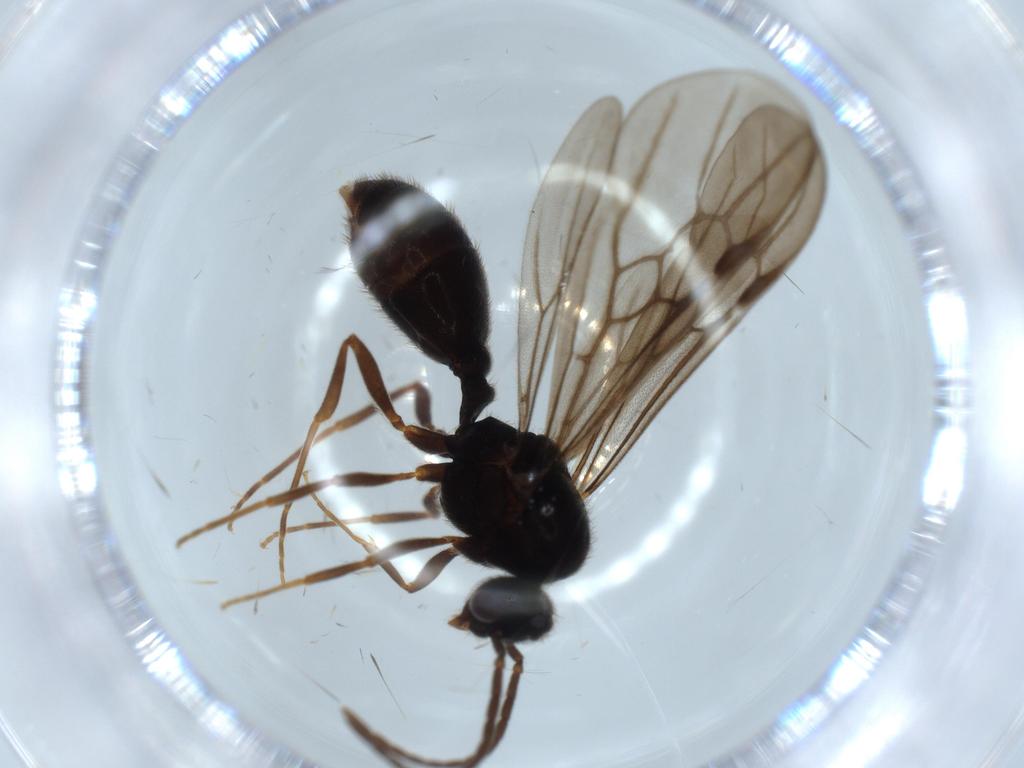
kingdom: Animalia
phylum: Arthropoda
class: Insecta
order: Hymenoptera
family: Formicidae
